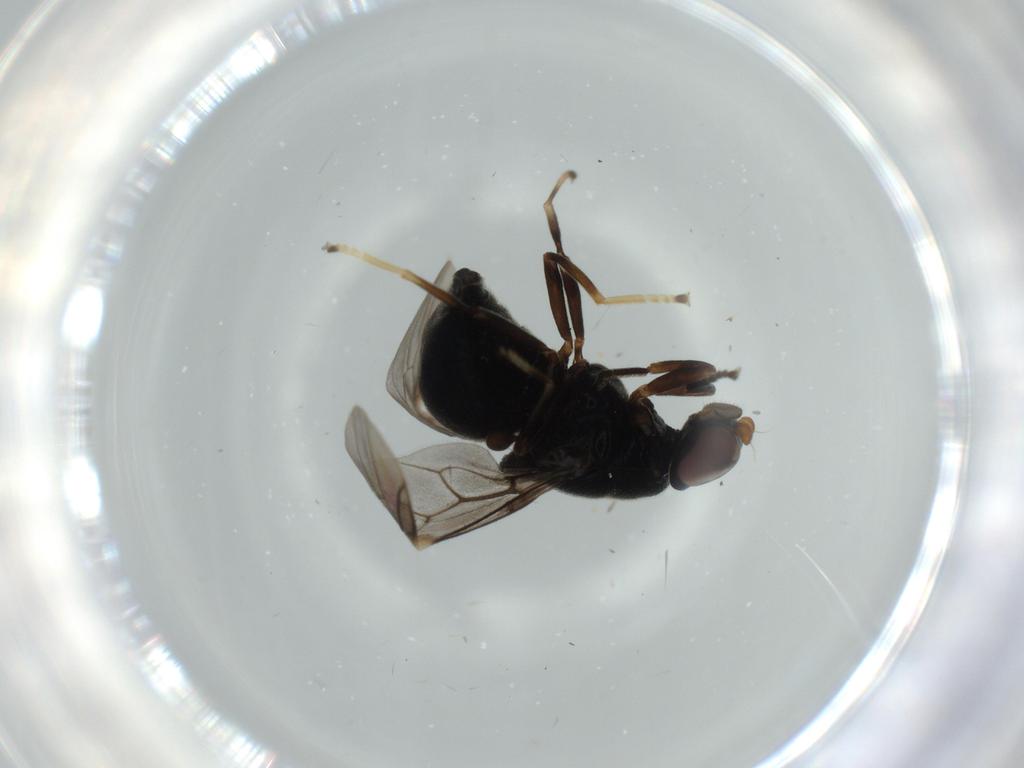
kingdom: Animalia
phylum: Arthropoda
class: Insecta
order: Diptera
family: Stratiomyidae
